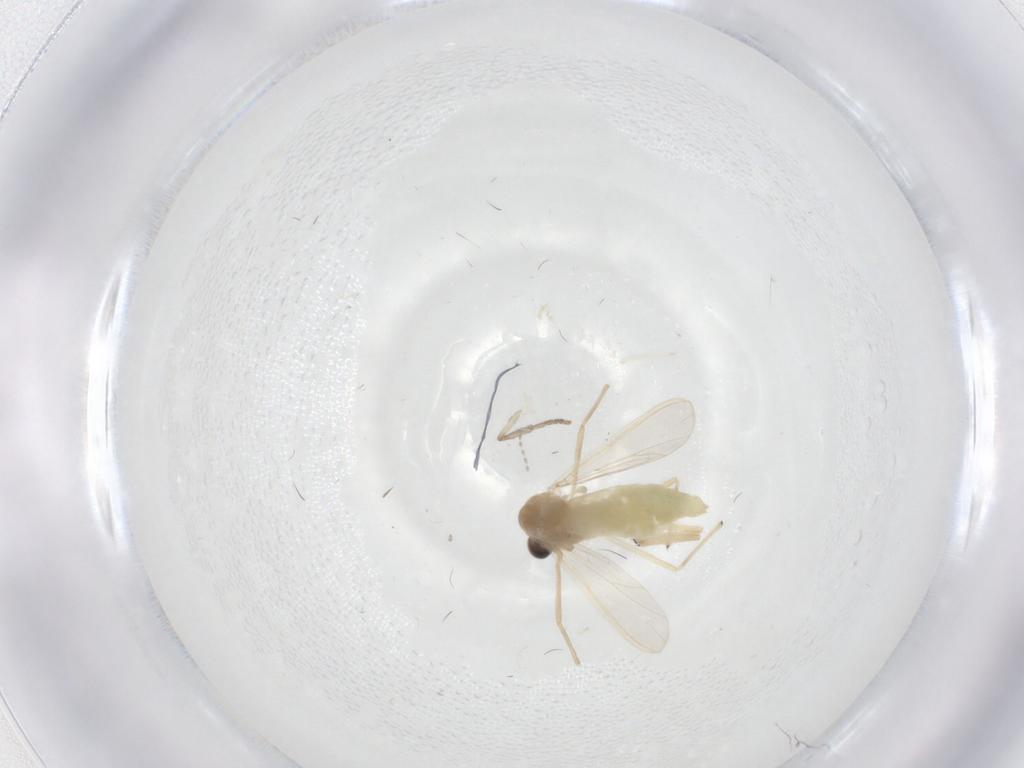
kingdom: Animalia
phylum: Arthropoda
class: Insecta
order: Diptera
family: Chironomidae
